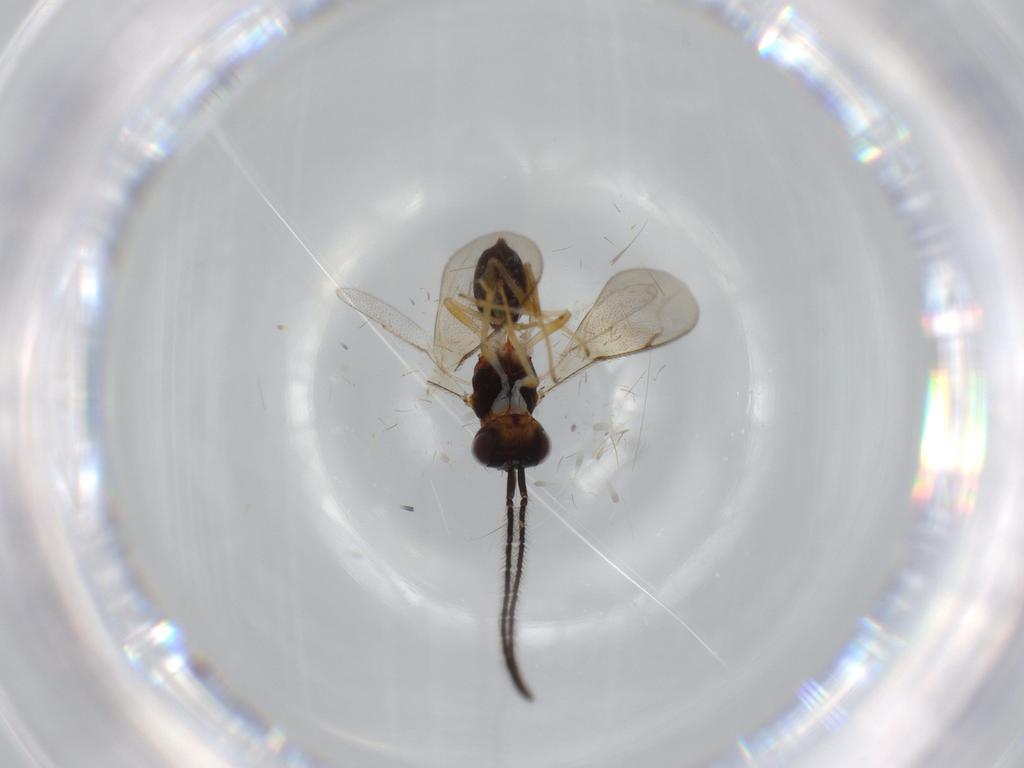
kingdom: Animalia
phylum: Arthropoda
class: Insecta
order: Hymenoptera
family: Diparidae
